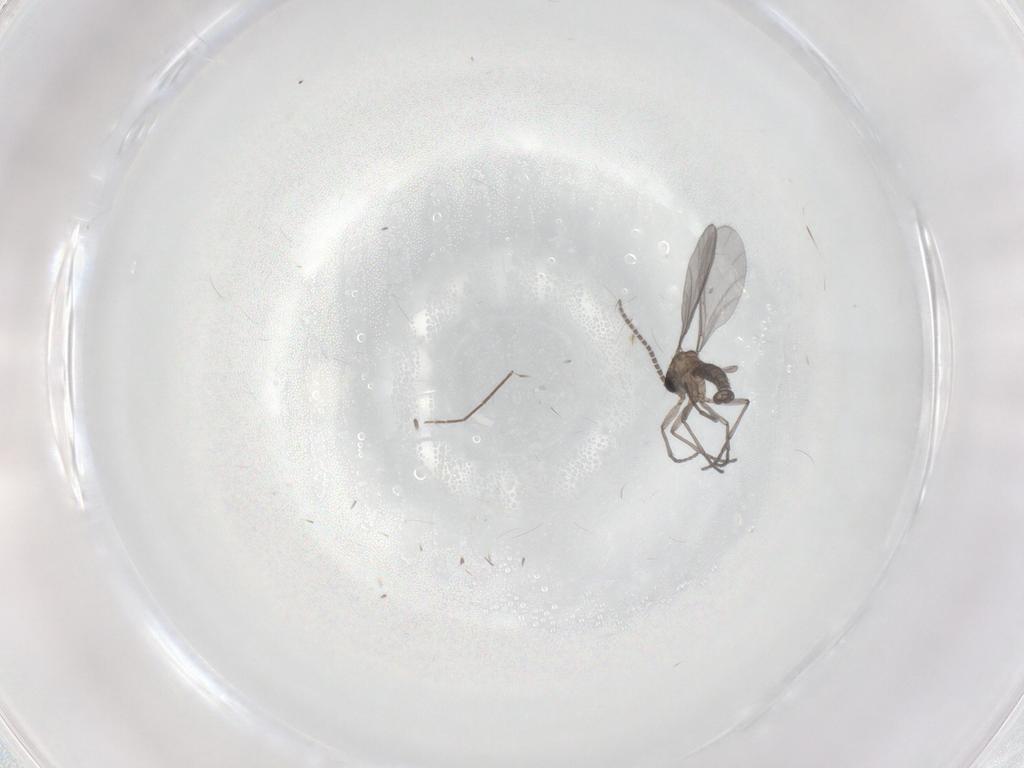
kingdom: Animalia
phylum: Arthropoda
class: Insecta
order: Diptera
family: Sciaridae
